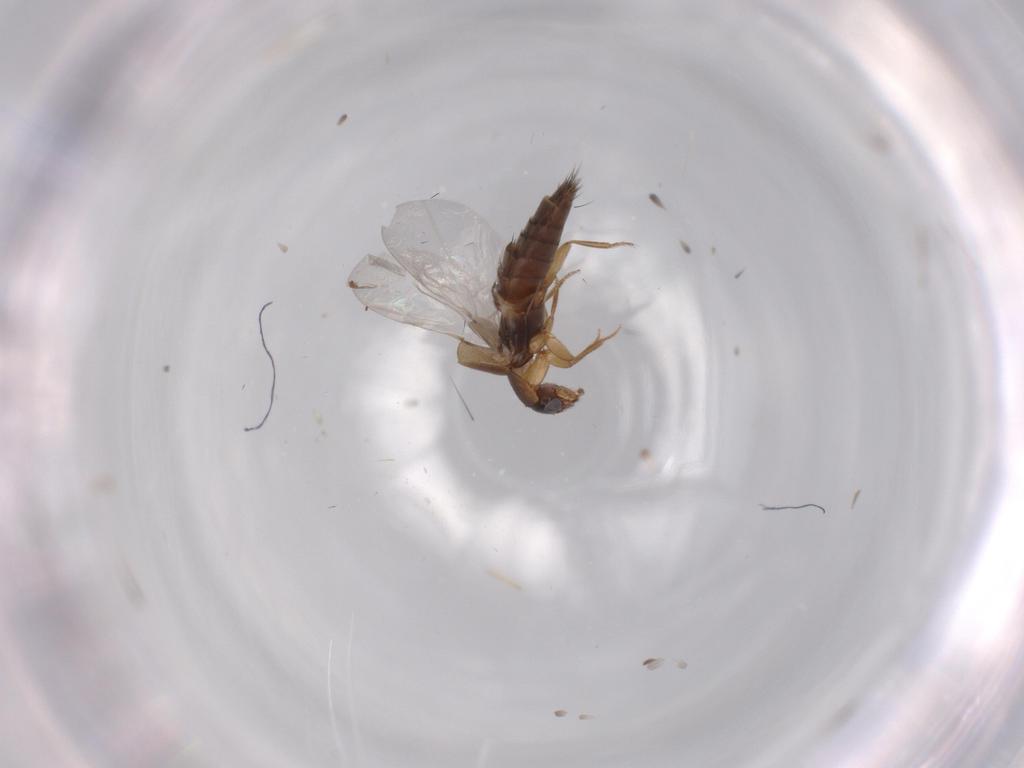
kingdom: Animalia
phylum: Arthropoda
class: Insecta
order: Coleoptera
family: Staphylinidae
